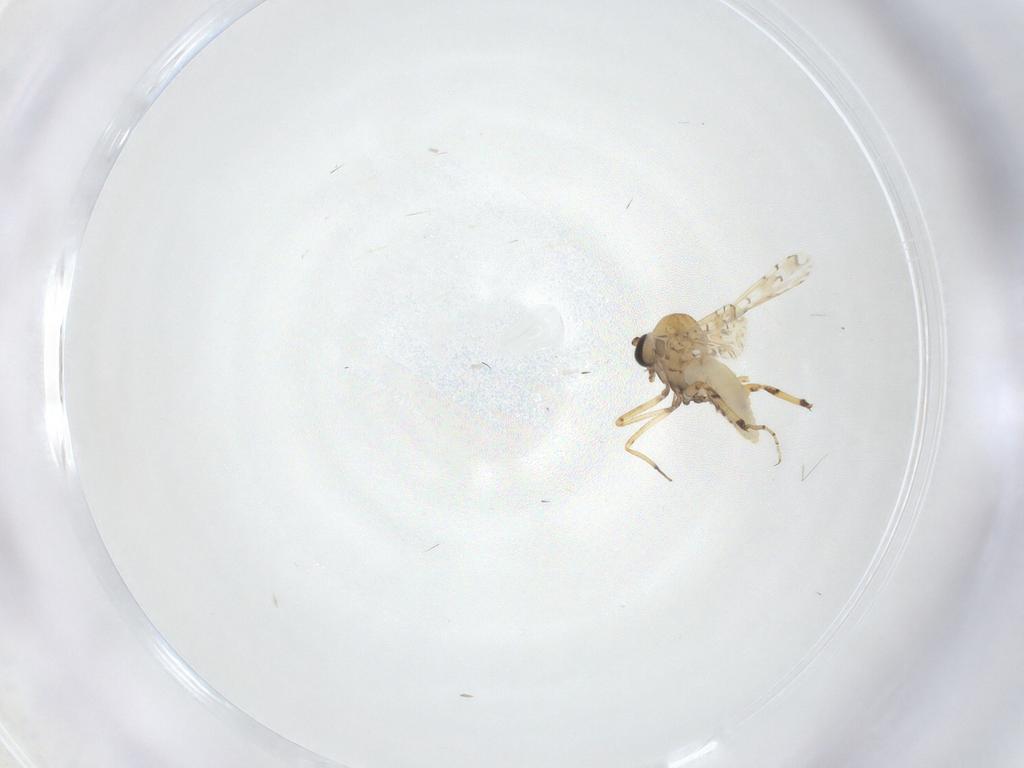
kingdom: Animalia
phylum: Arthropoda
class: Insecta
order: Diptera
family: Ceratopogonidae
